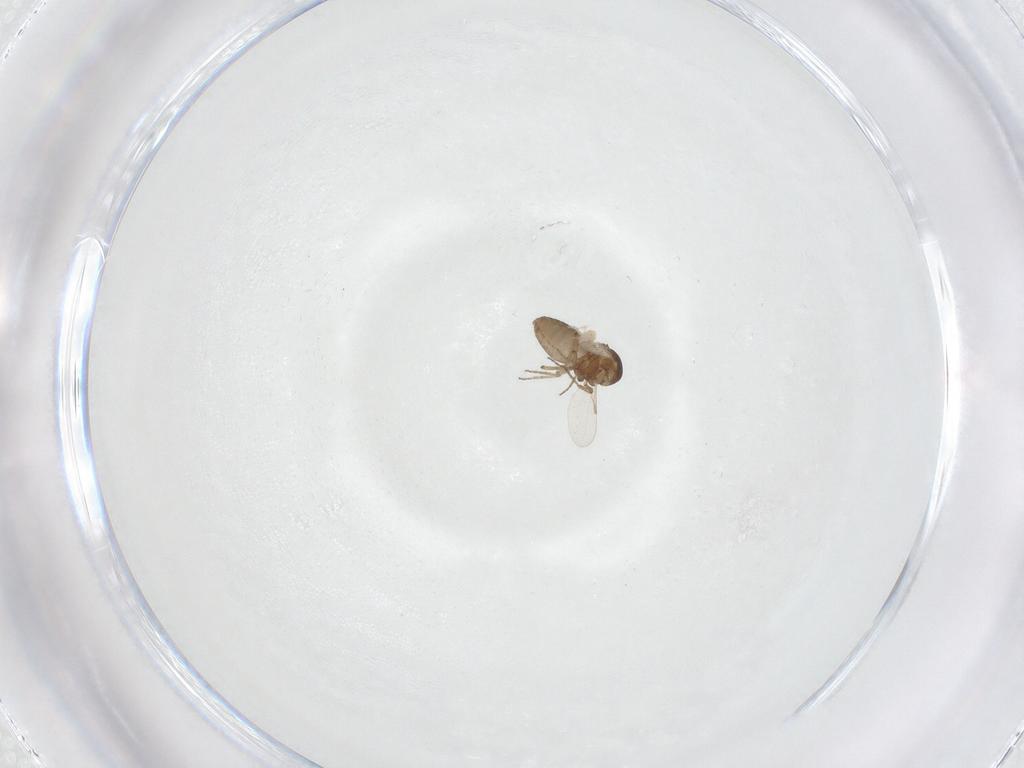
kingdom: Animalia
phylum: Arthropoda
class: Insecta
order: Diptera
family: Ceratopogonidae
